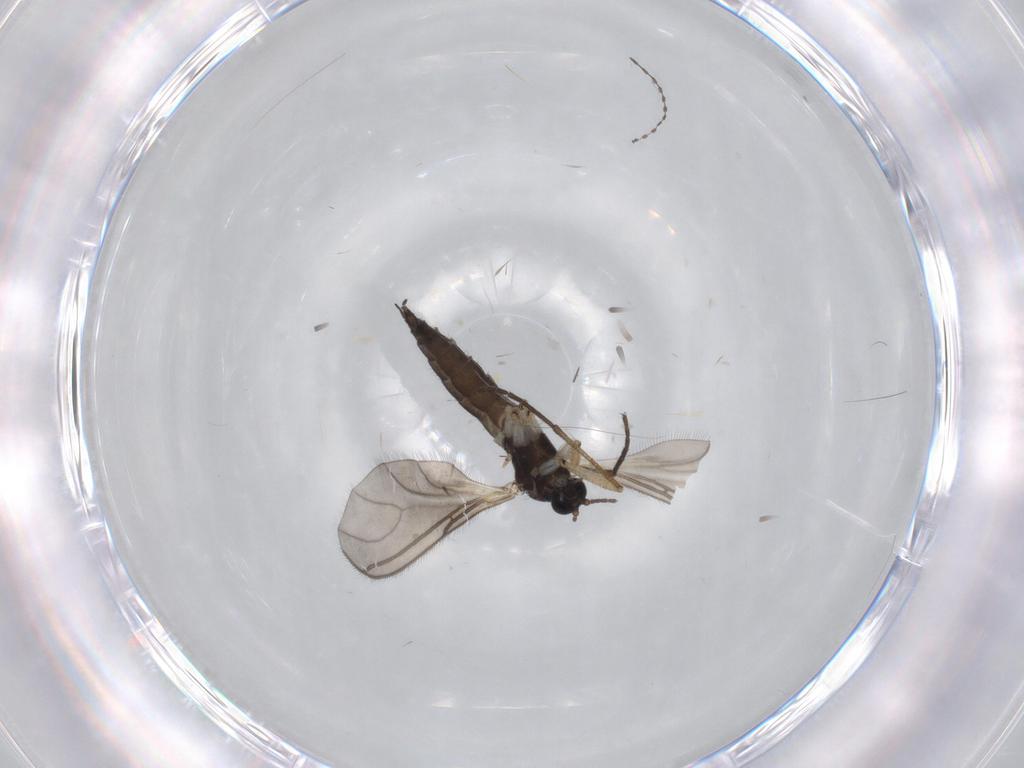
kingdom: Animalia
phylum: Arthropoda
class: Insecta
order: Diptera
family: Sciaridae
